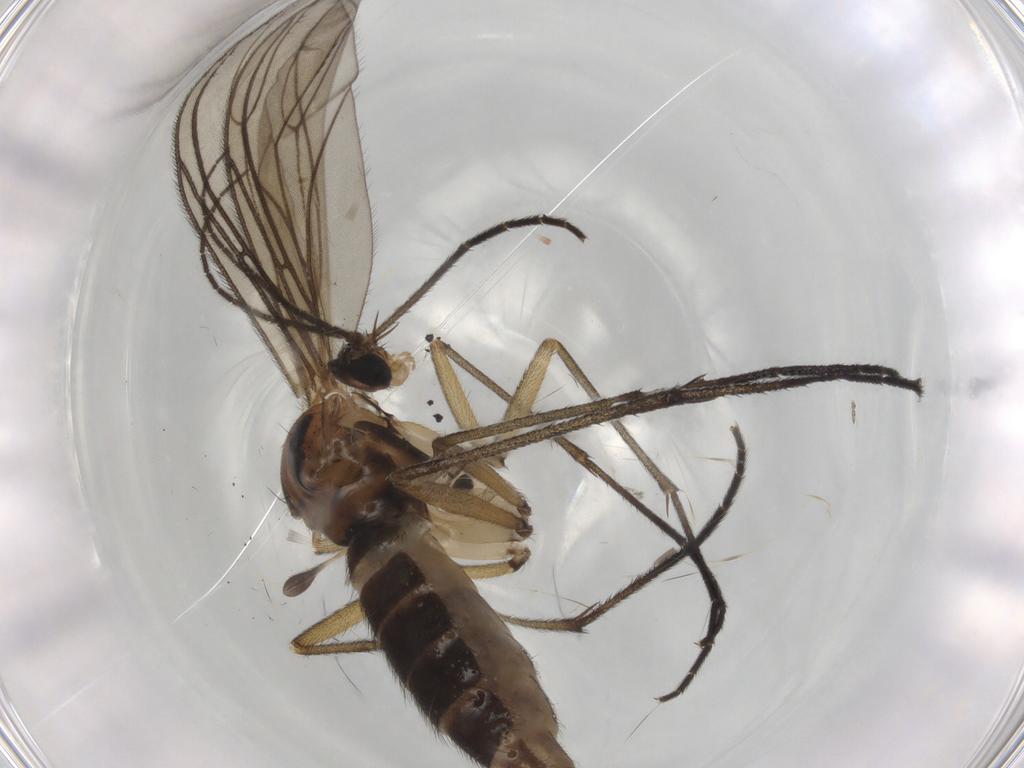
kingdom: Animalia
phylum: Arthropoda
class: Insecta
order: Diptera
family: Sciaridae
